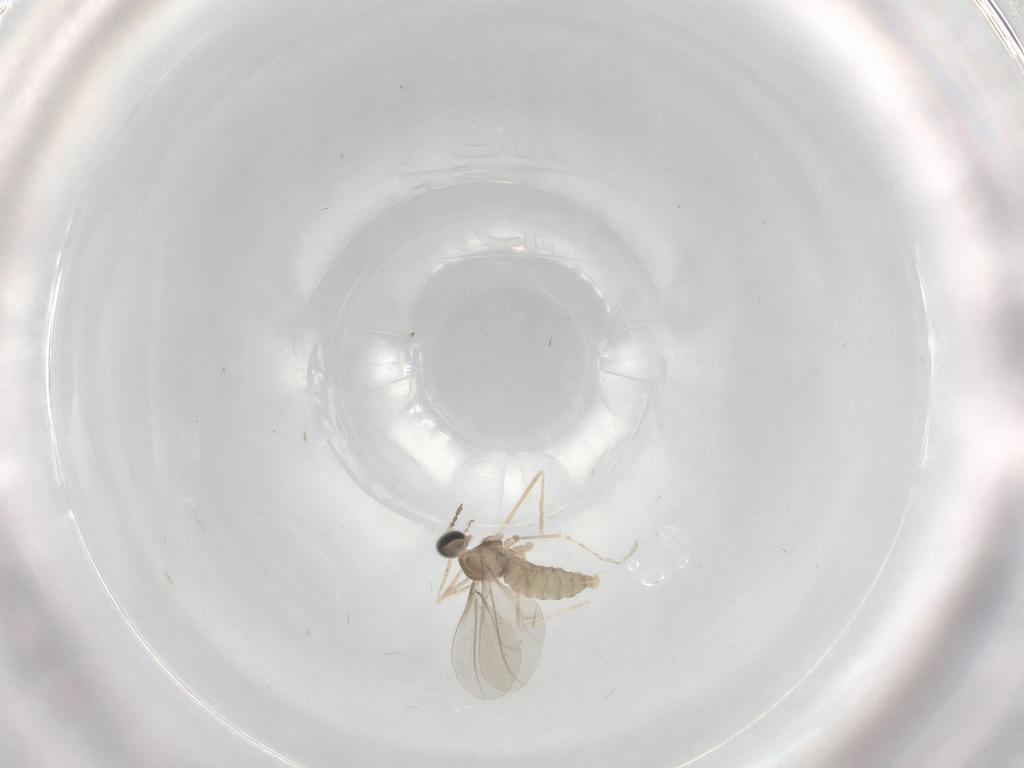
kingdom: Animalia
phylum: Arthropoda
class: Insecta
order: Diptera
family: Cecidomyiidae
